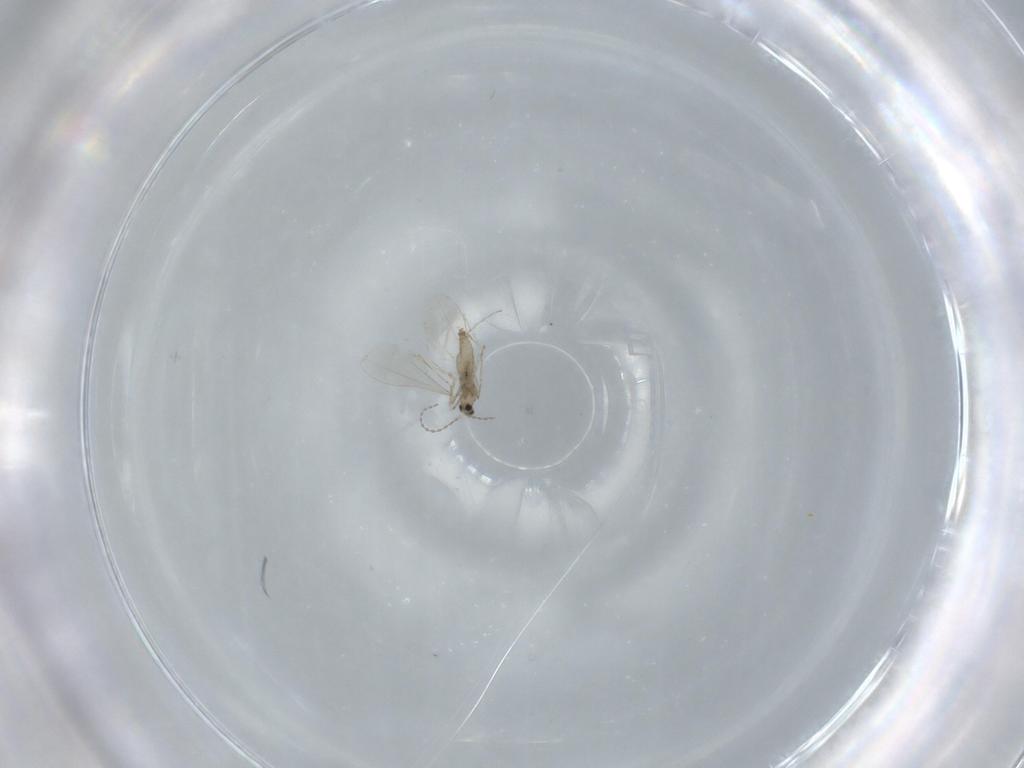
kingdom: Animalia
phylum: Arthropoda
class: Insecta
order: Diptera
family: Cecidomyiidae
